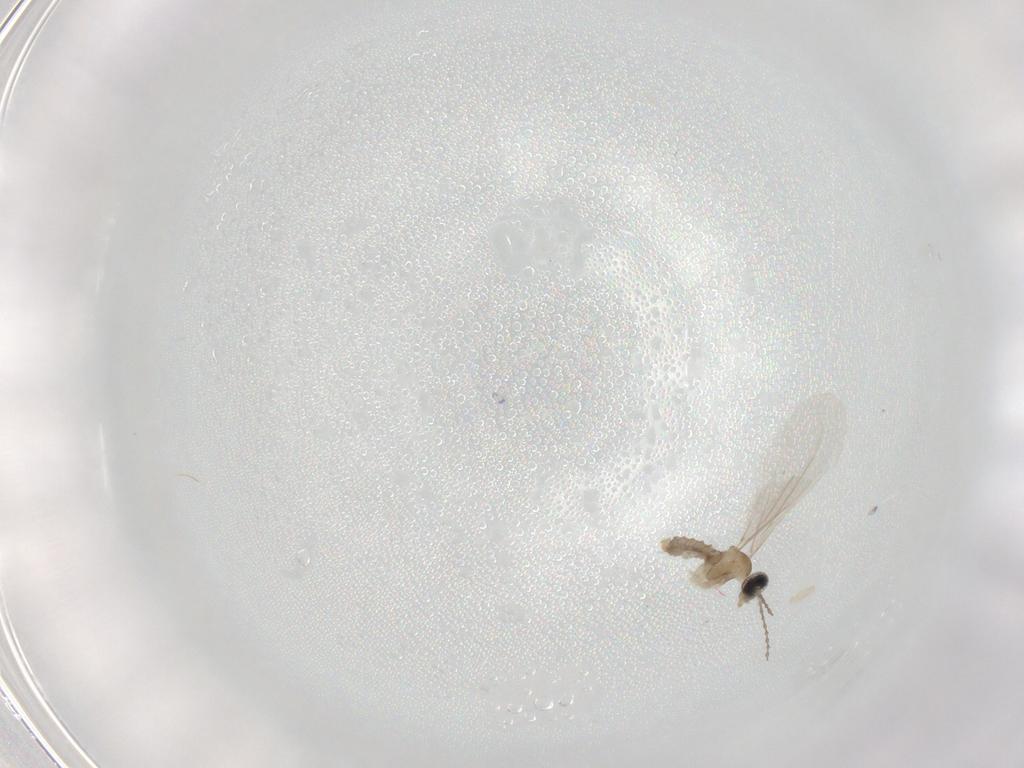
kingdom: Animalia
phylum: Arthropoda
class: Insecta
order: Diptera
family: Cecidomyiidae
